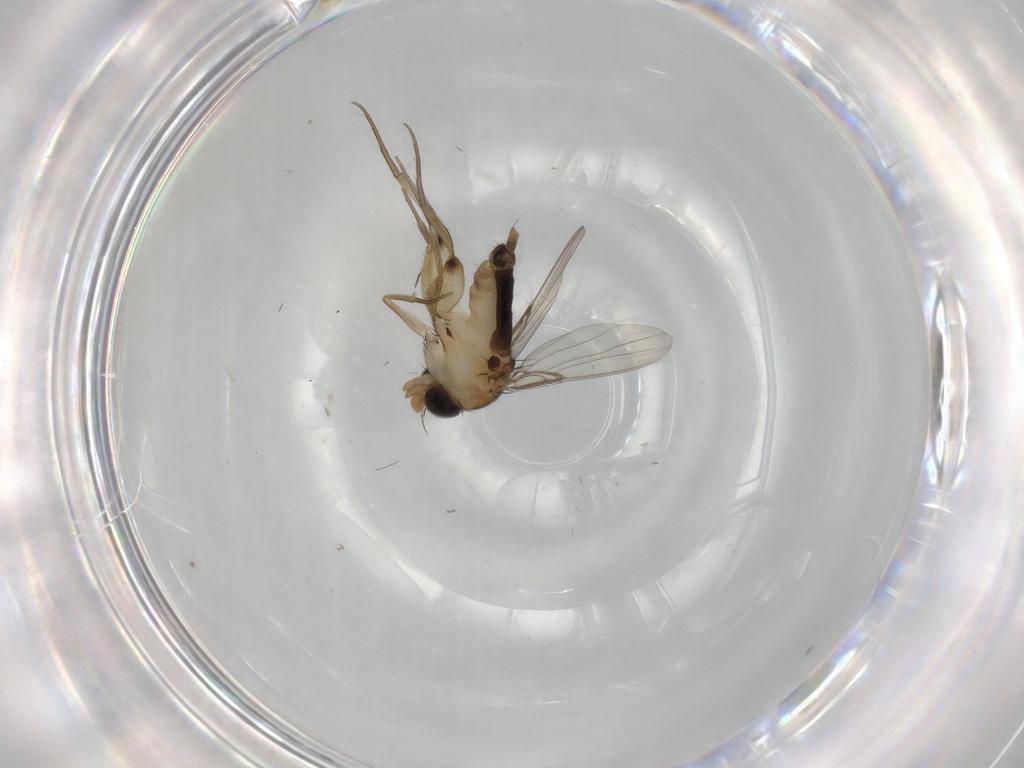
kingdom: Animalia
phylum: Arthropoda
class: Insecta
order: Diptera
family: Phoridae
